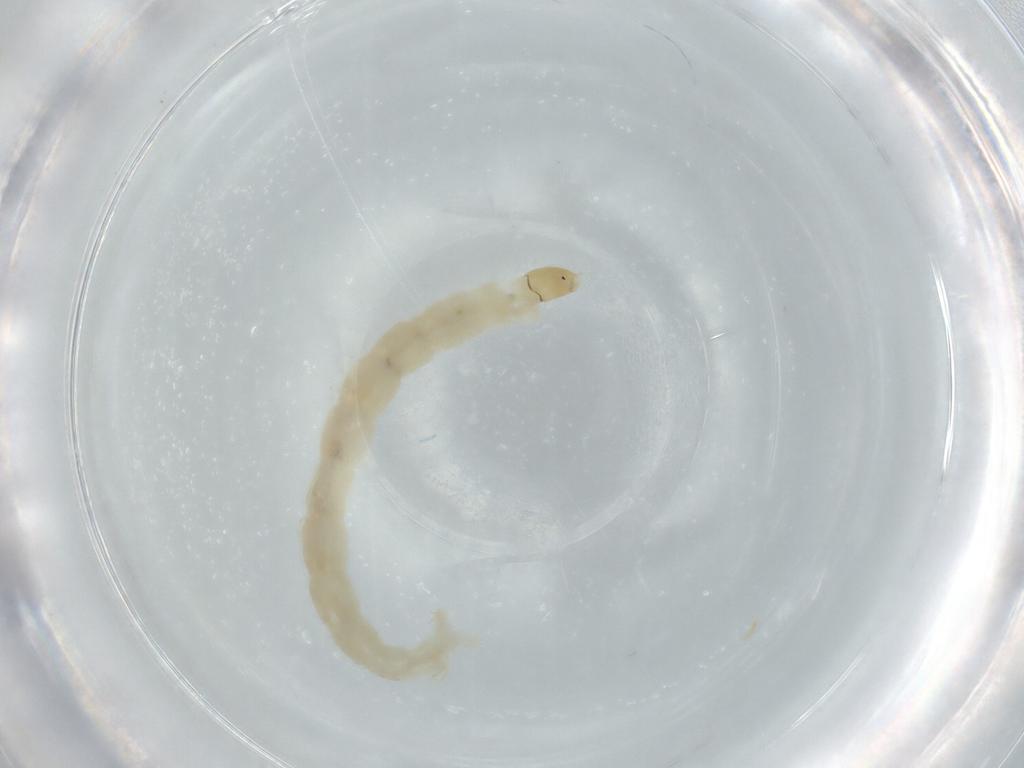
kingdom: Animalia
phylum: Arthropoda
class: Insecta
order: Diptera
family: Chironomidae
